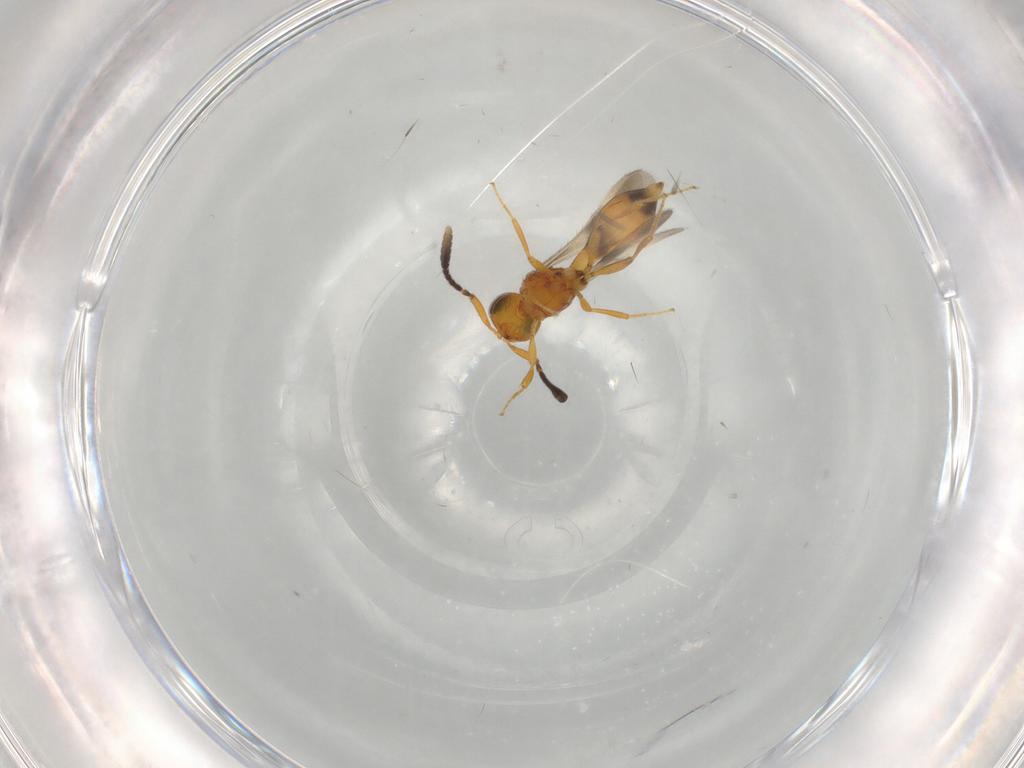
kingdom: Animalia
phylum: Arthropoda
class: Insecta
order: Hymenoptera
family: Scelionidae
